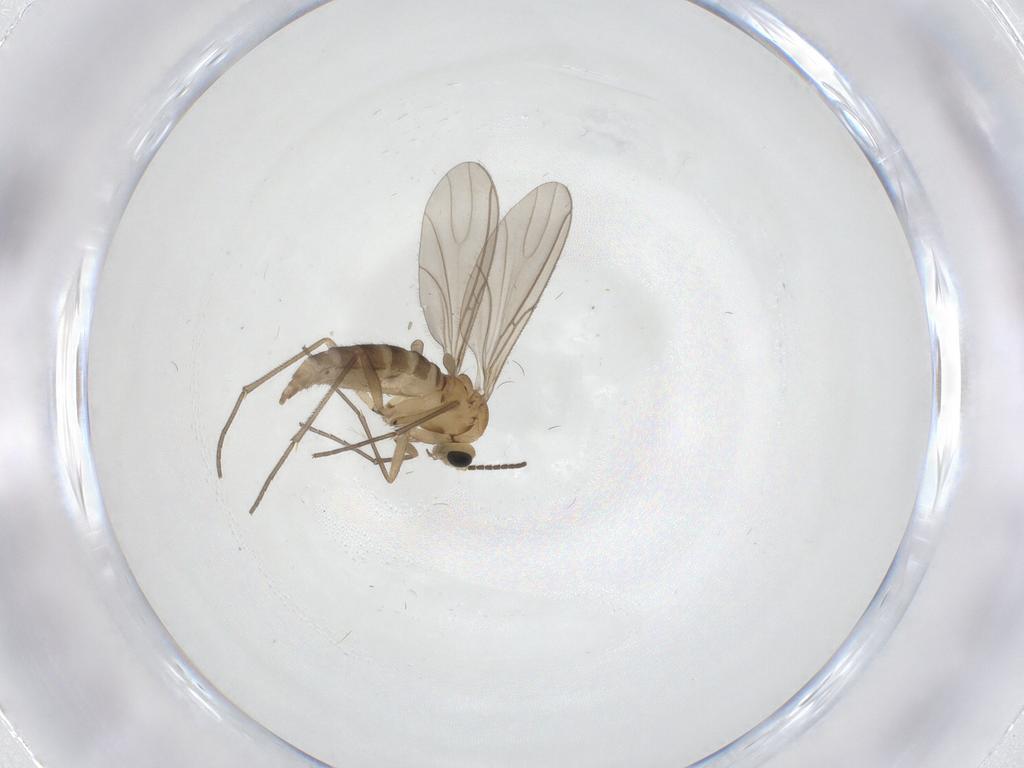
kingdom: Animalia
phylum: Arthropoda
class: Insecta
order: Diptera
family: Sciaridae
